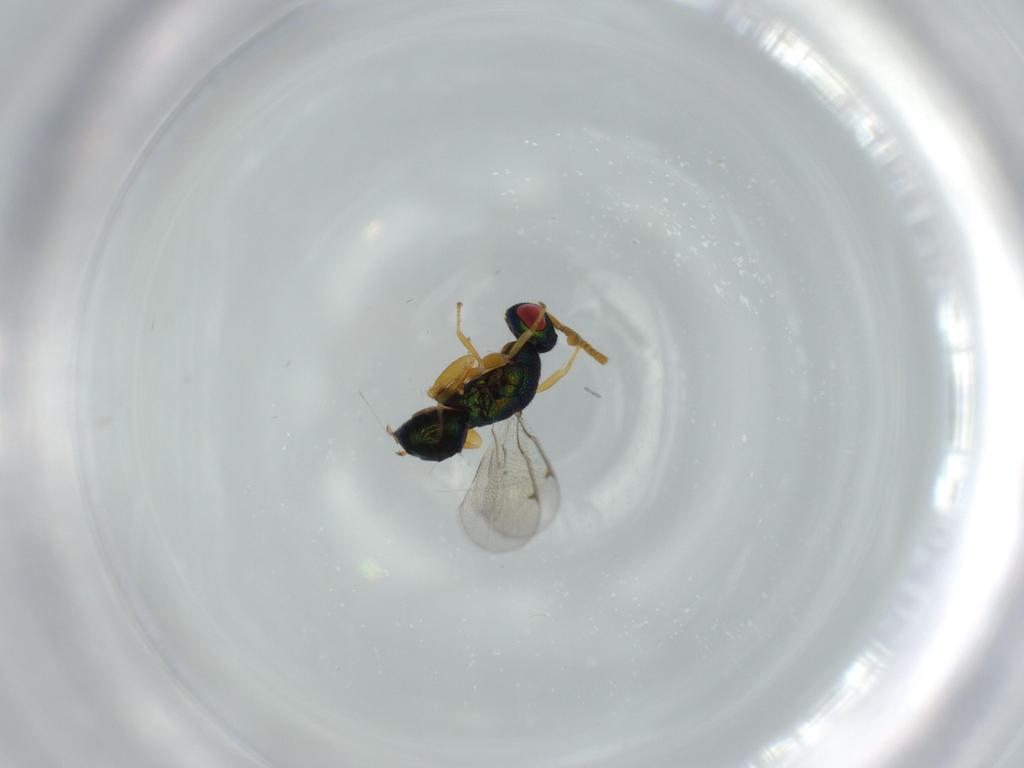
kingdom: Animalia
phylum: Arthropoda
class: Insecta
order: Hymenoptera
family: Torymidae
